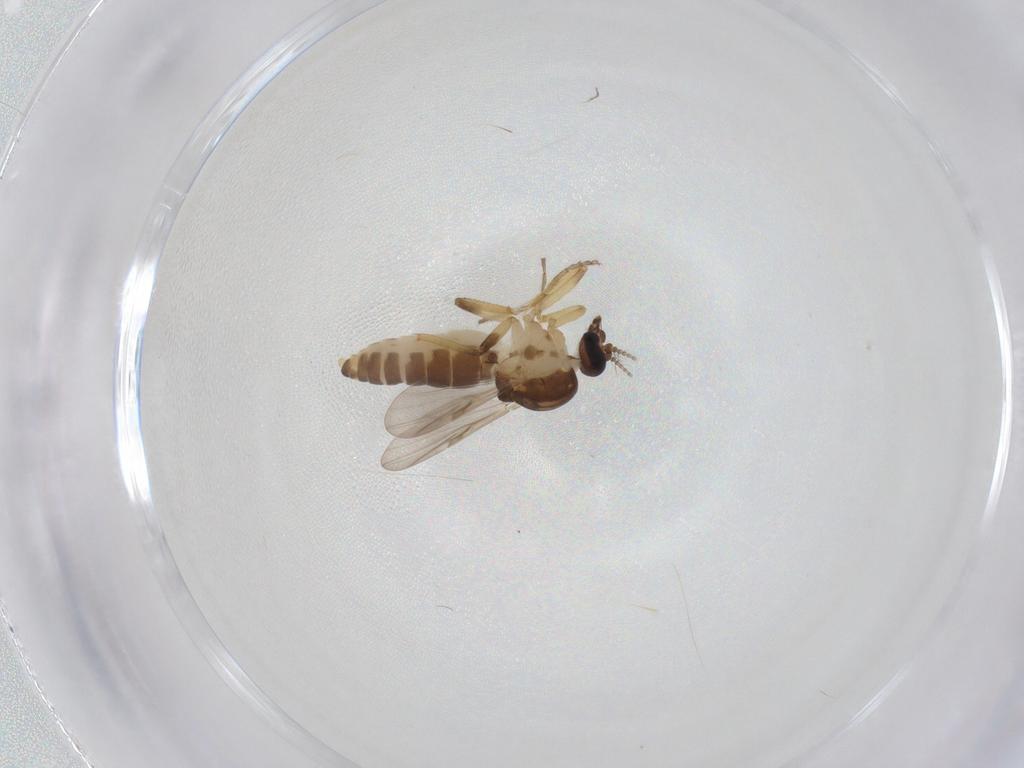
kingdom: Animalia
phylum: Arthropoda
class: Insecta
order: Diptera
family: Ceratopogonidae
